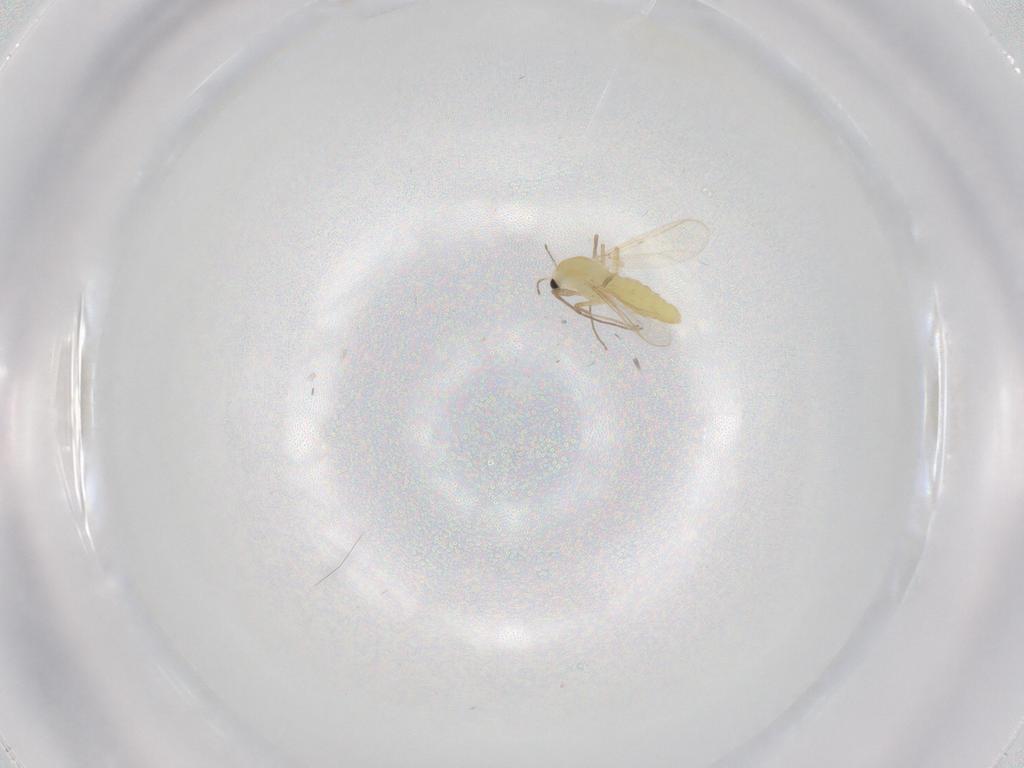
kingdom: Animalia
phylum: Arthropoda
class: Insecta
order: Diptera
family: Chironomidae
